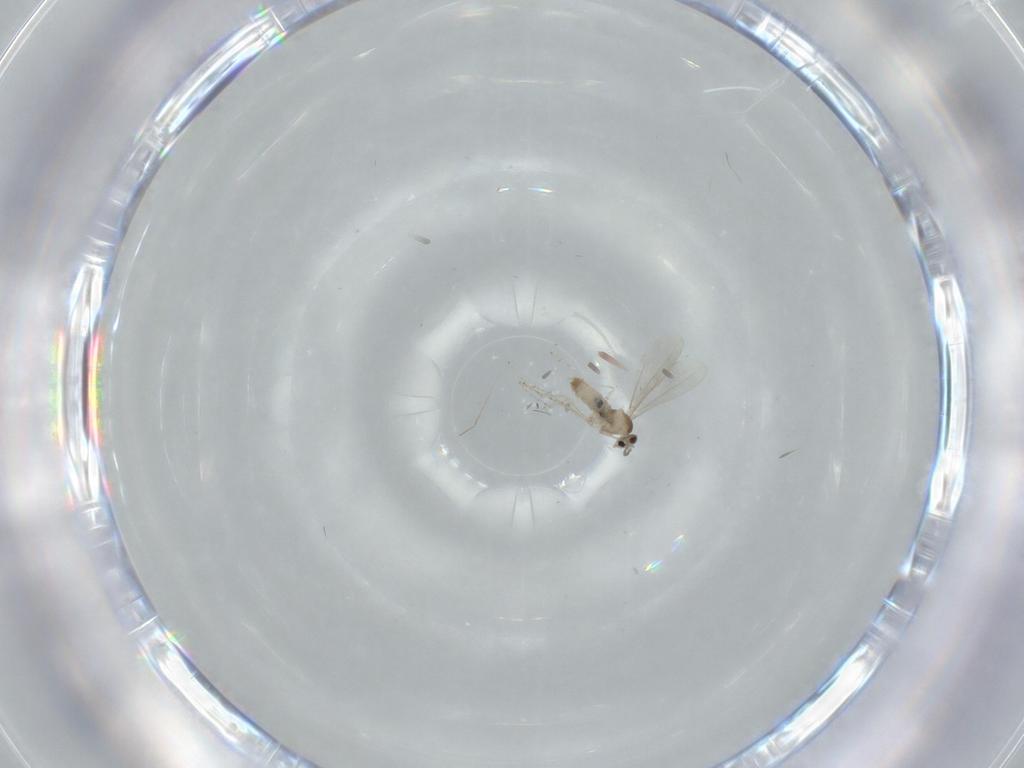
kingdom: Animalia
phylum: Arthropoda
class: Insecta
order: Diptera
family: Cecidomyiidae
